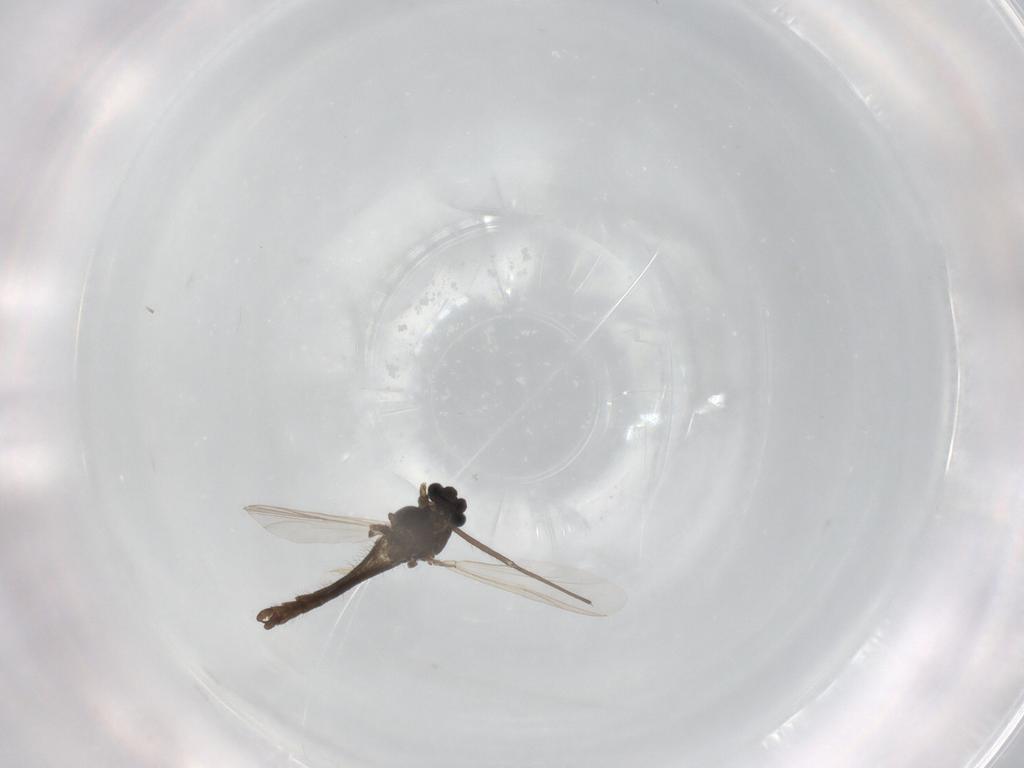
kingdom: Animalia
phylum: Arthropoda
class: Insecta
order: Diptera
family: Chironomidae
